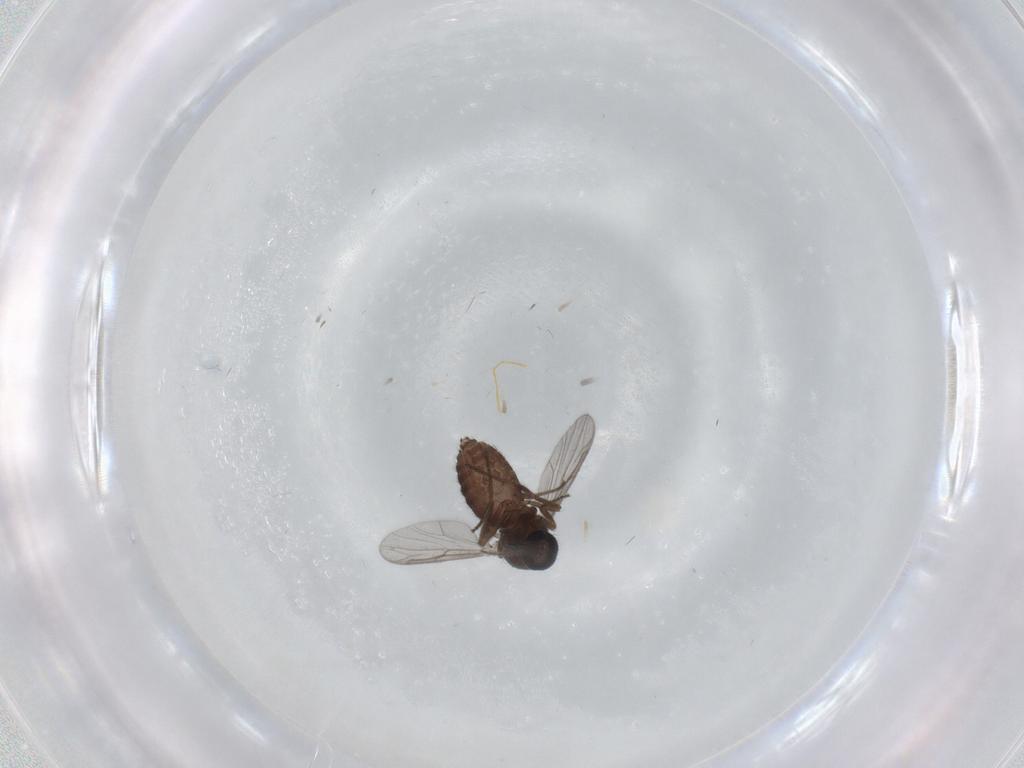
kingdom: Animalia
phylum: Arthropoda
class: Insecta
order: Diptera
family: Ceratopogonidae
